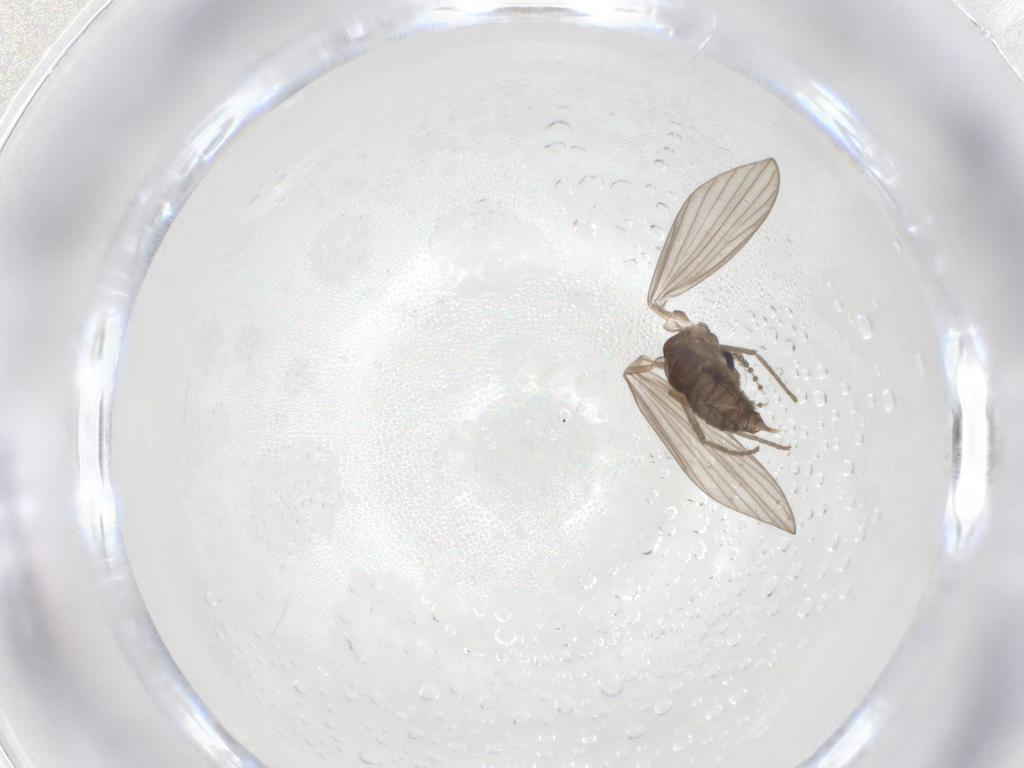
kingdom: Animalia
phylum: Arthropoda
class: Insecta
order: Diptera
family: Psychodidae
